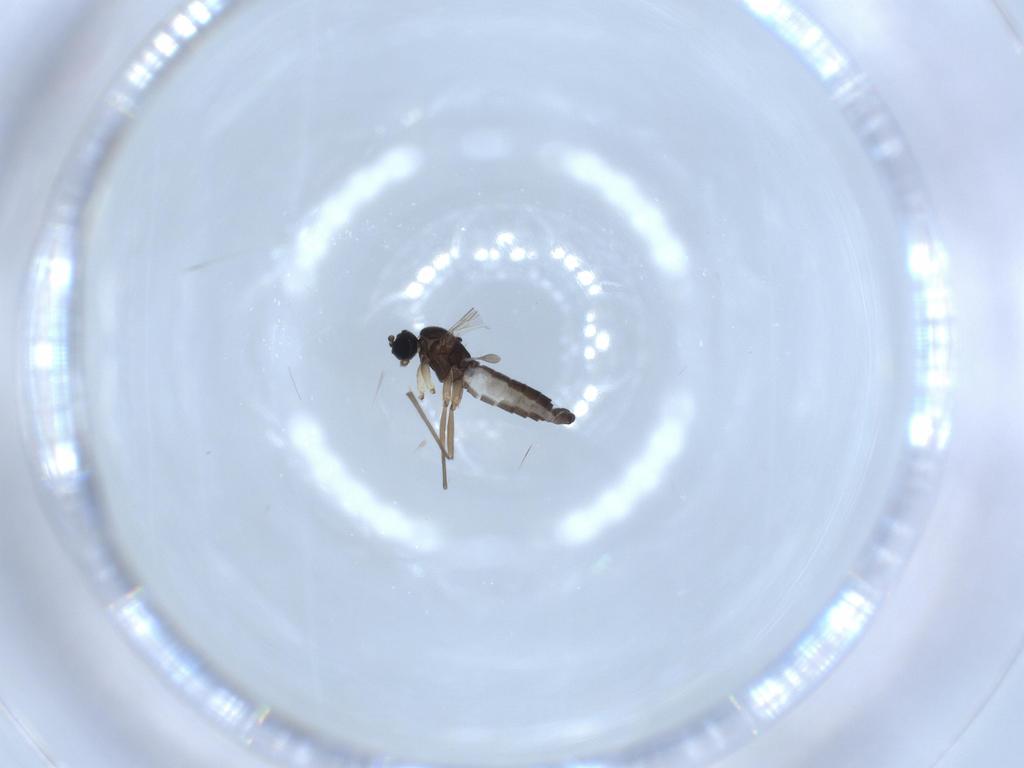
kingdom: Animalia
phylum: Arthropoda
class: Insecta
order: Diptera
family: Sciaridae
